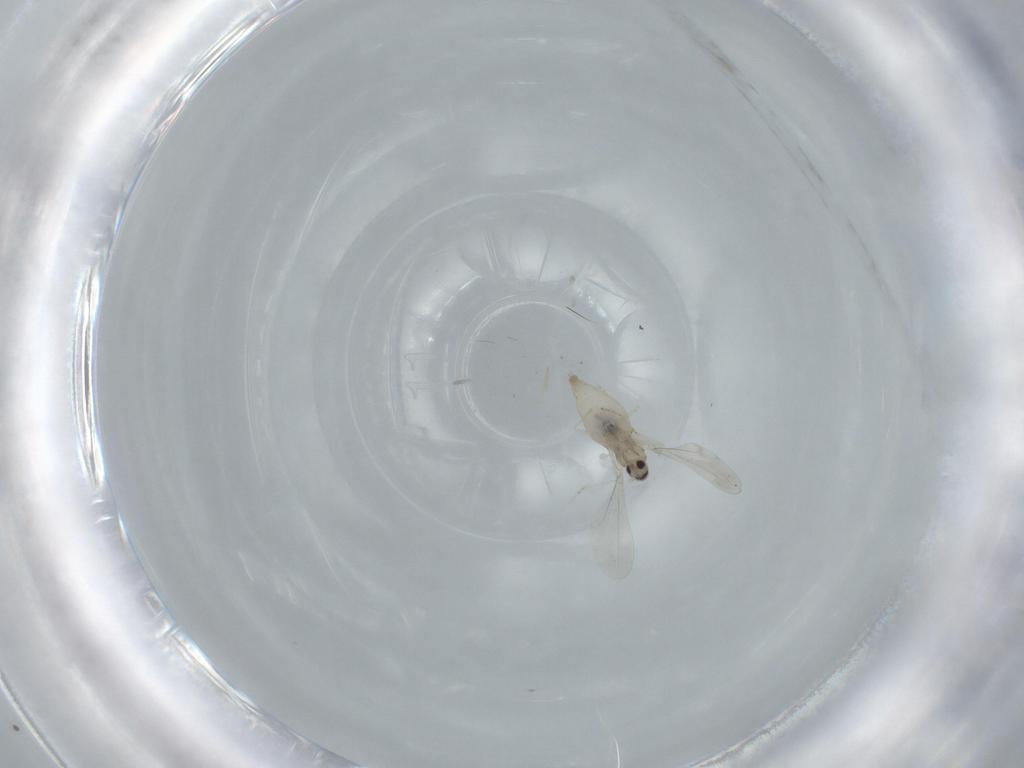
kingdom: Animalia
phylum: Arthropoda
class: Insecta
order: Diptera
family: Cecidomyiidae
